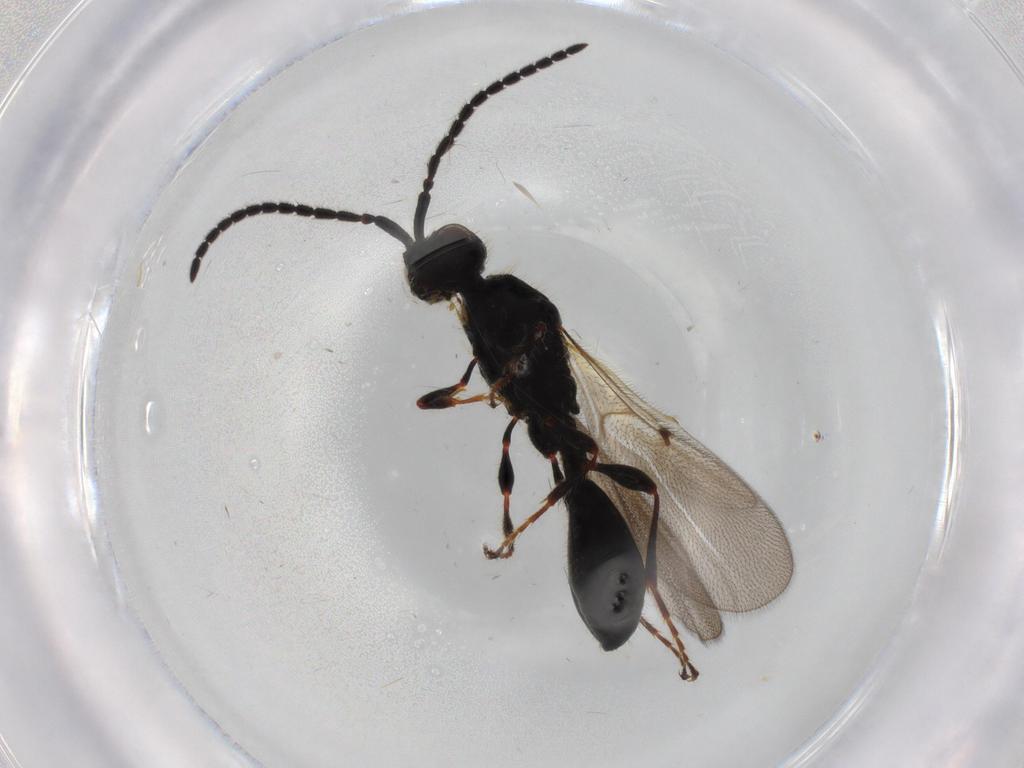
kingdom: Animalia
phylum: Arthropoda
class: Insecta
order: Hymenoptera
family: Diapriidae
